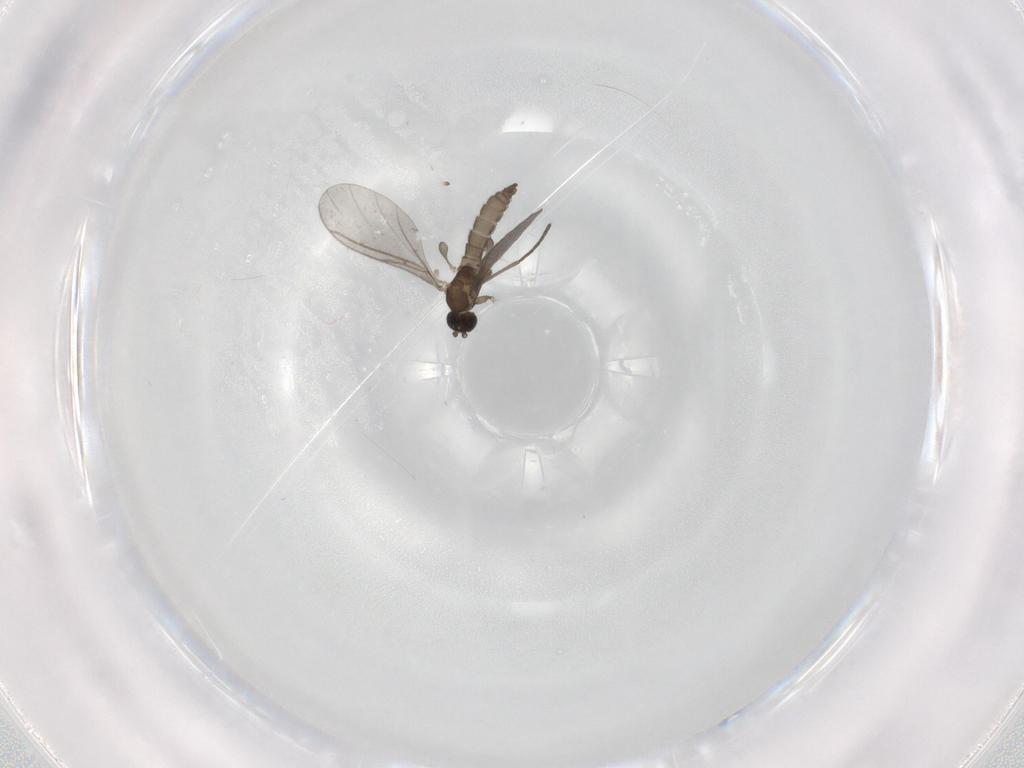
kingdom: Animalia
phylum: Arthropoda
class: Insecta
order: Diptera
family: Sciaridae
